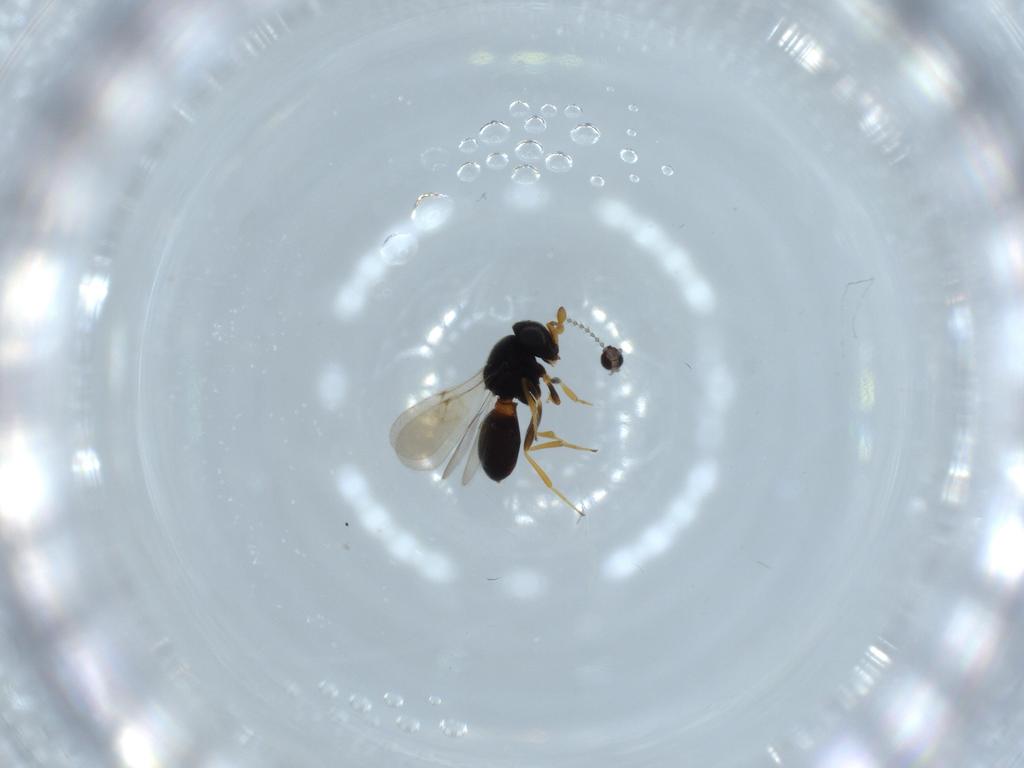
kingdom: Animalia
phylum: Arthropoda
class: Insecta
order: Hymenoptera
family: Scelionidae
